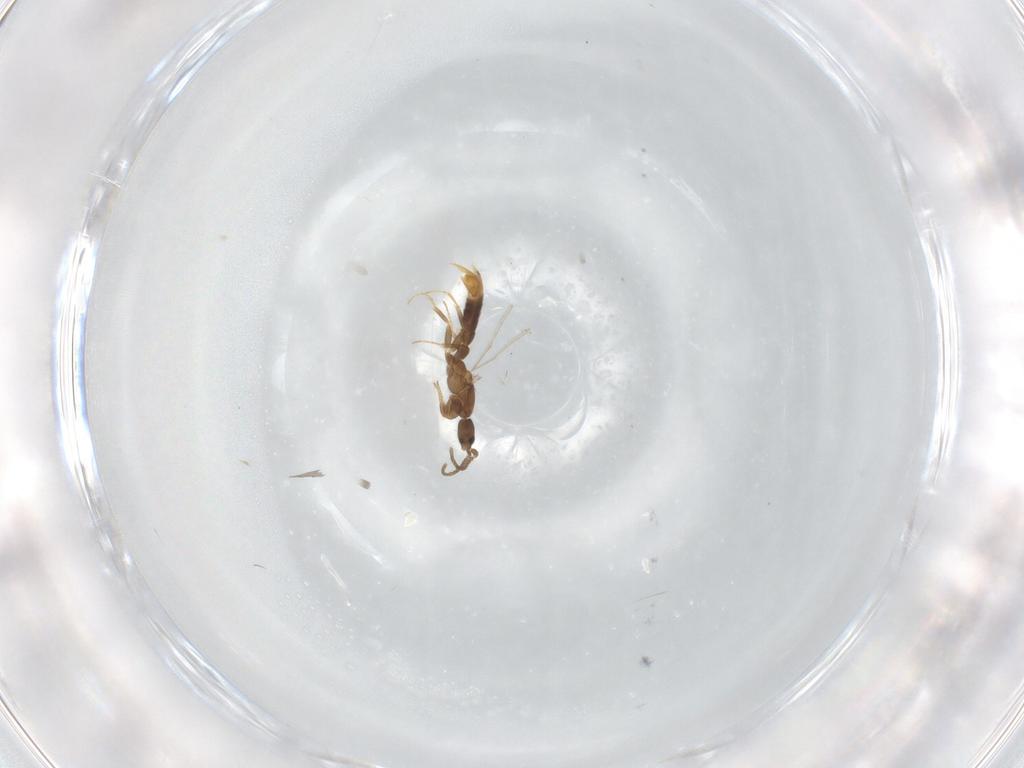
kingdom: Animalia
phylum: Arthropoda
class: Insecta
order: Hymenoptera
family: Formicidae
